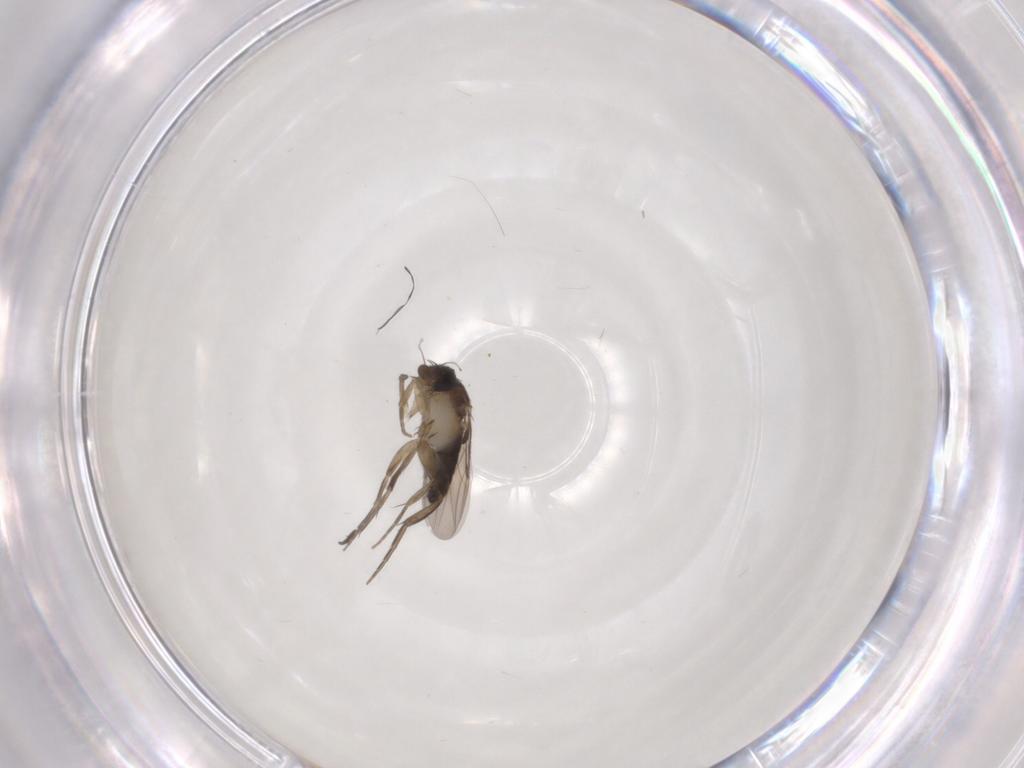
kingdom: Animalia
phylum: Arthropoda
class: Insecta
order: Diptera
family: Phoridae
